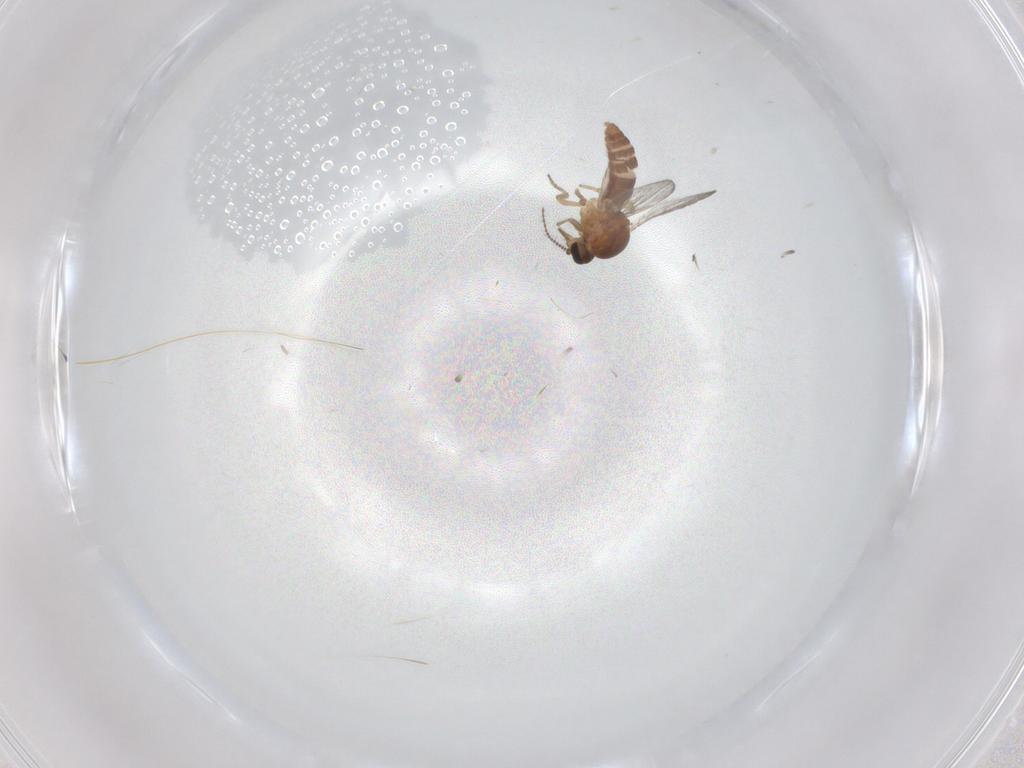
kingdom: Animalia
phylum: Arthropoda
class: Insecta
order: Diptera
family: Ceratopogonidae
